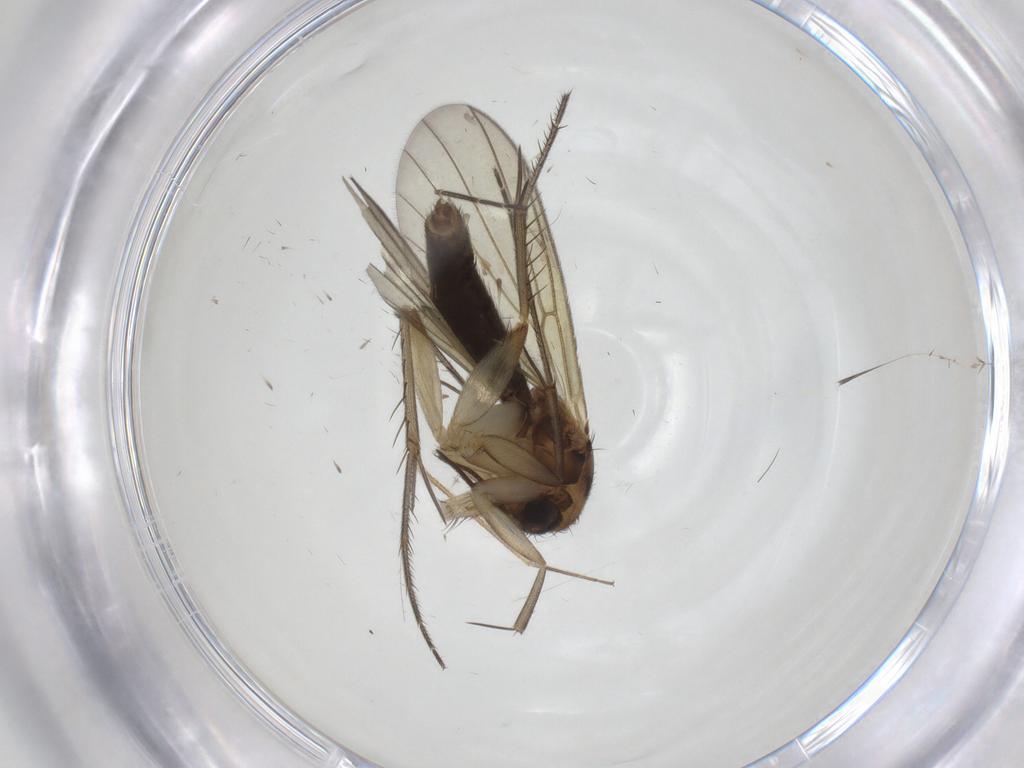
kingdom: Animalia
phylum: Arthropoda
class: Insecta
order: Diptera
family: Mycetophilidae
